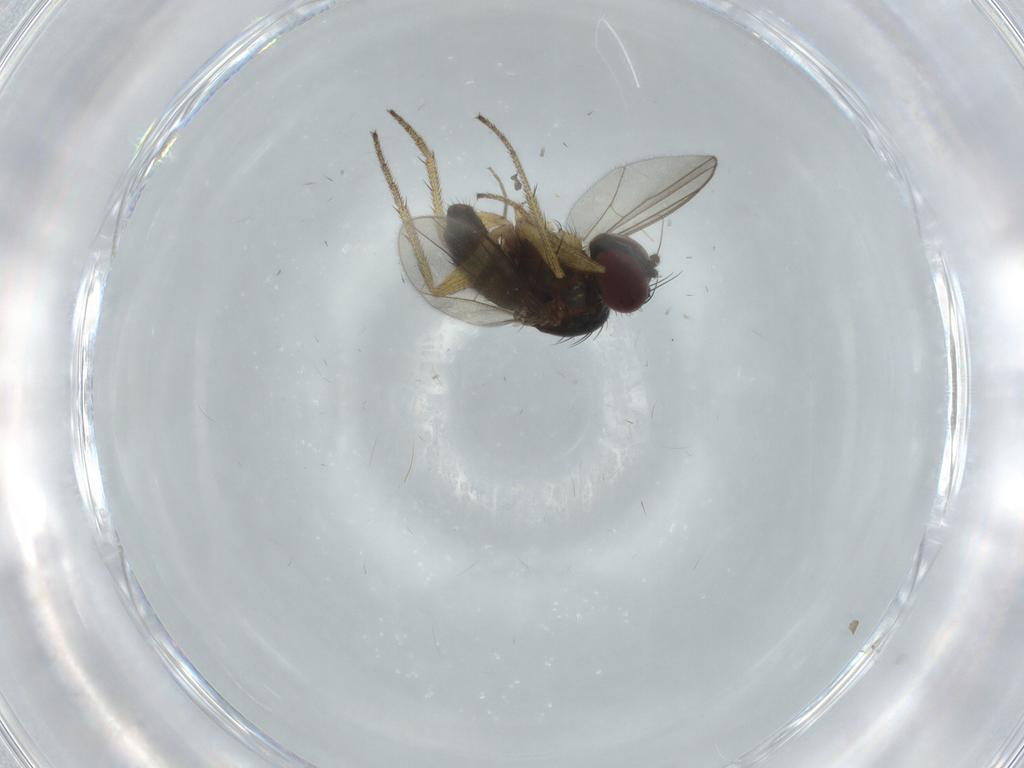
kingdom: Animalia
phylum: Arthropoda
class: Insecta
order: Diptera
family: Dolichopodidae
